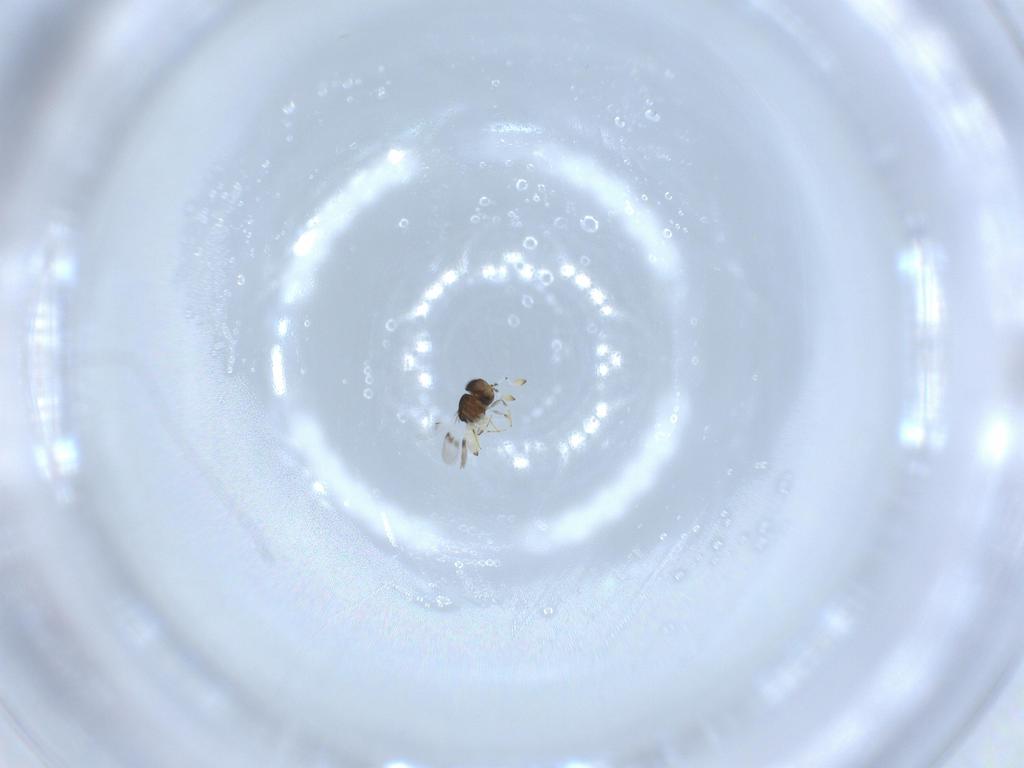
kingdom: Animalia
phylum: Arthropoda
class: Insecta
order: Hymenoptera
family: Scelionidae
